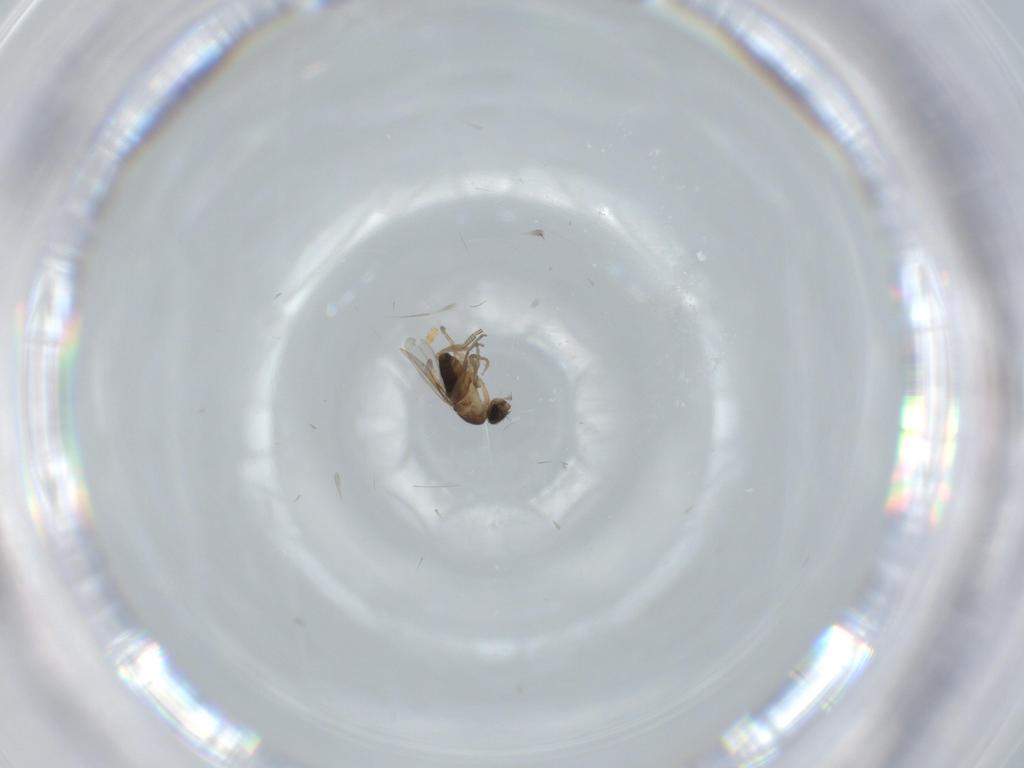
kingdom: Animalia
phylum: Arthropoda
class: Insecta
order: Diptera
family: Phoridae
